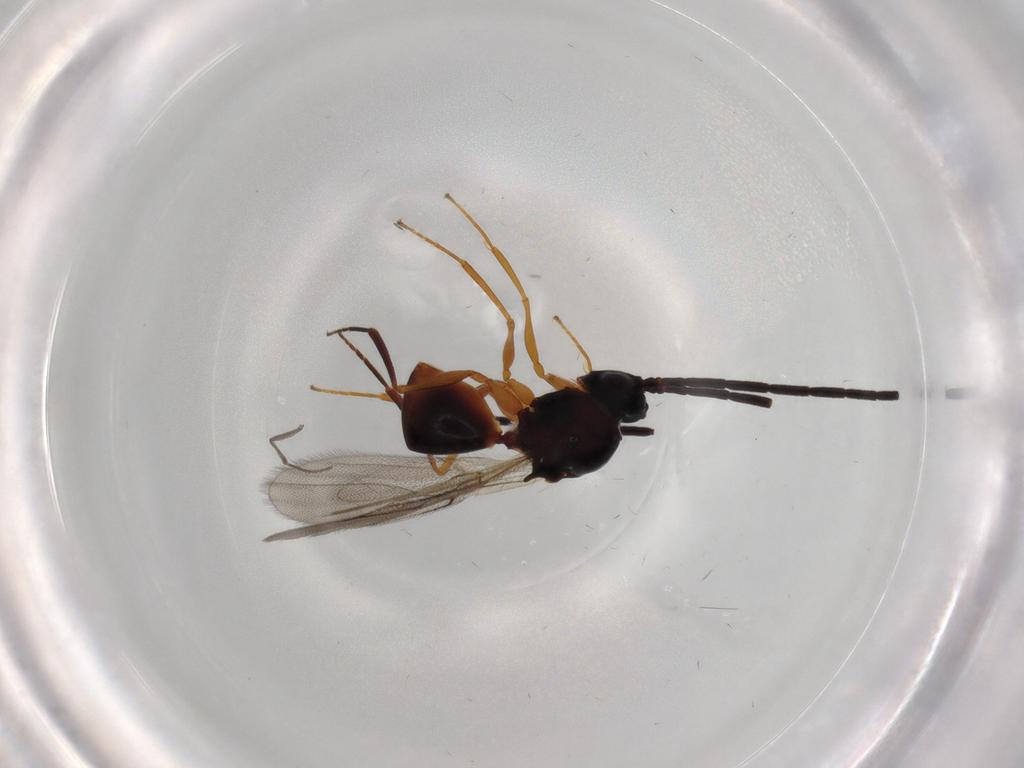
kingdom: Animalia
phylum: Arthropoda
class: Insecta
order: Hymenoptera
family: Figitidae
